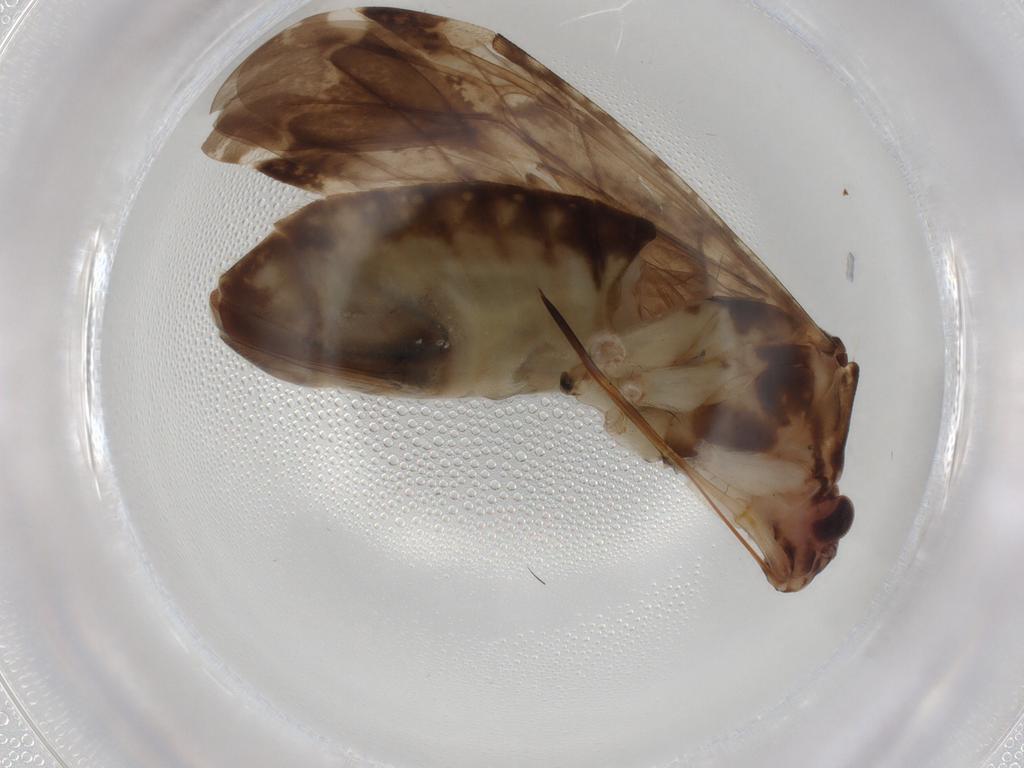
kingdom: Animalia
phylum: Arthropoda
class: Insecta
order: Hemiptera
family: Miridae
